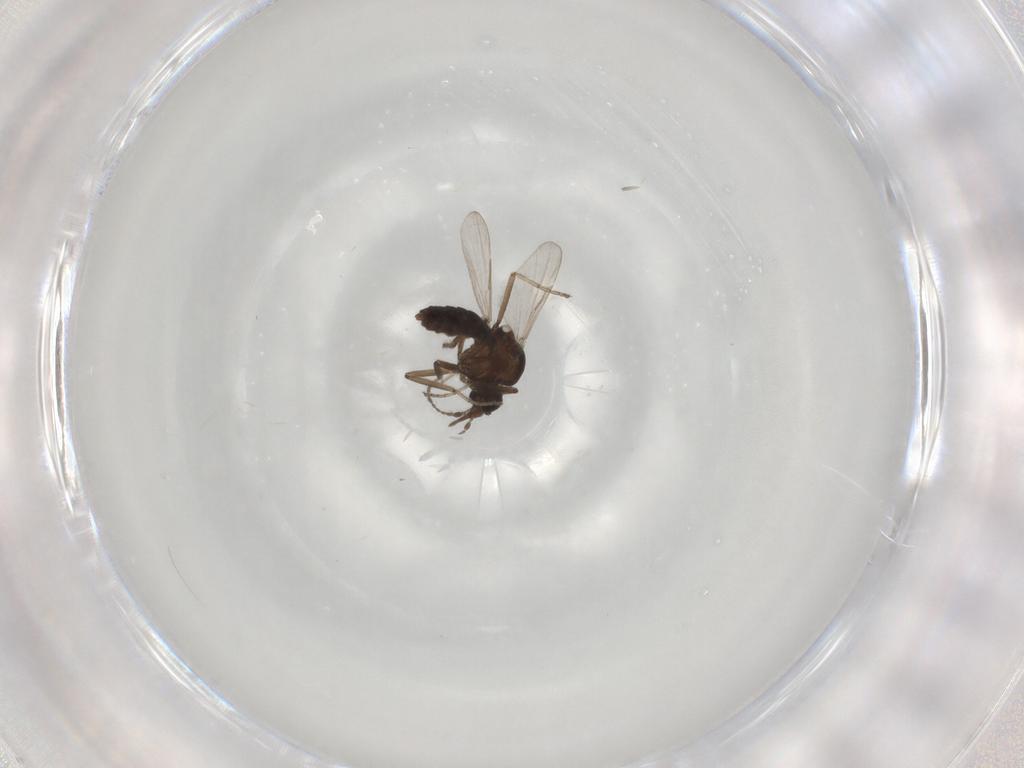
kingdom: Animalia
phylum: Arthropoda
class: Insecta
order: Diptera
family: Ceratopogonidae
